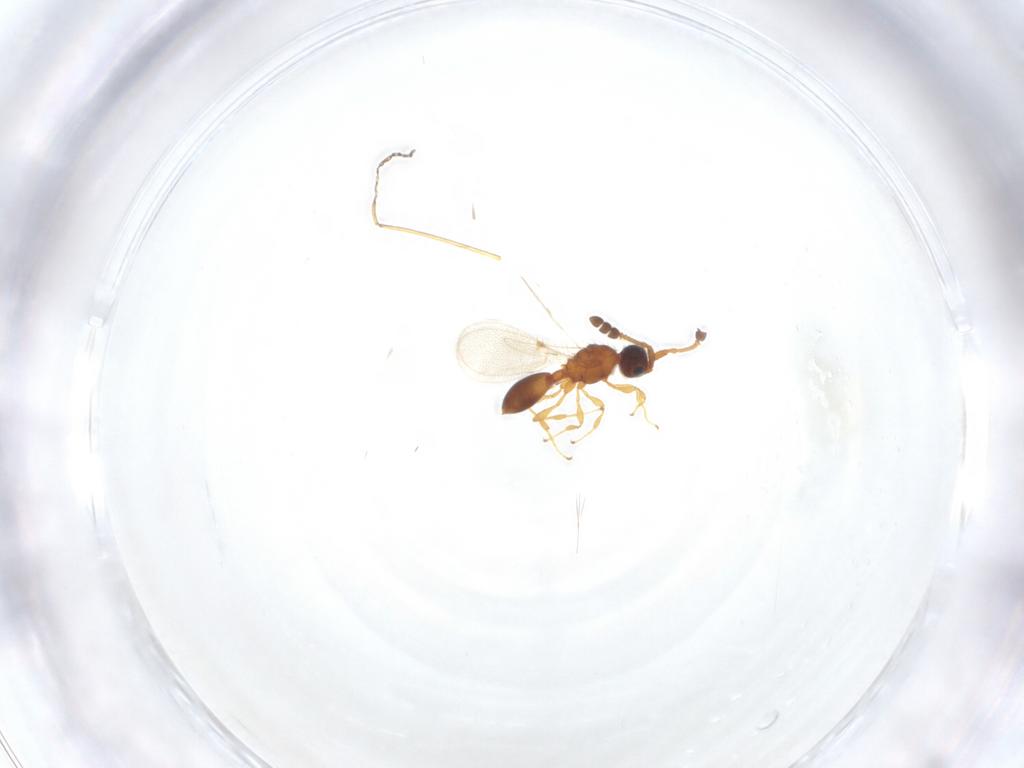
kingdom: Animalia
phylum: Arthropoda
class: Insecta
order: Hymenoptera
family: Diapriidae
